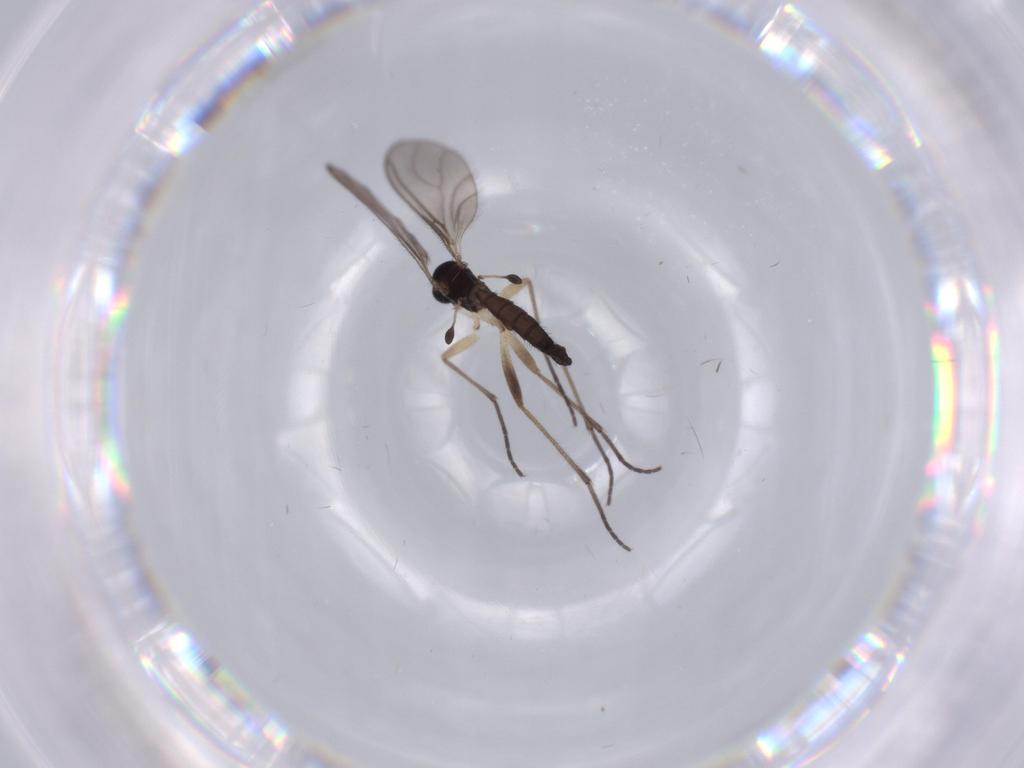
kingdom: Animalia
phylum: Arthropoda
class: Insecta
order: Diptera
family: Sciaridae
